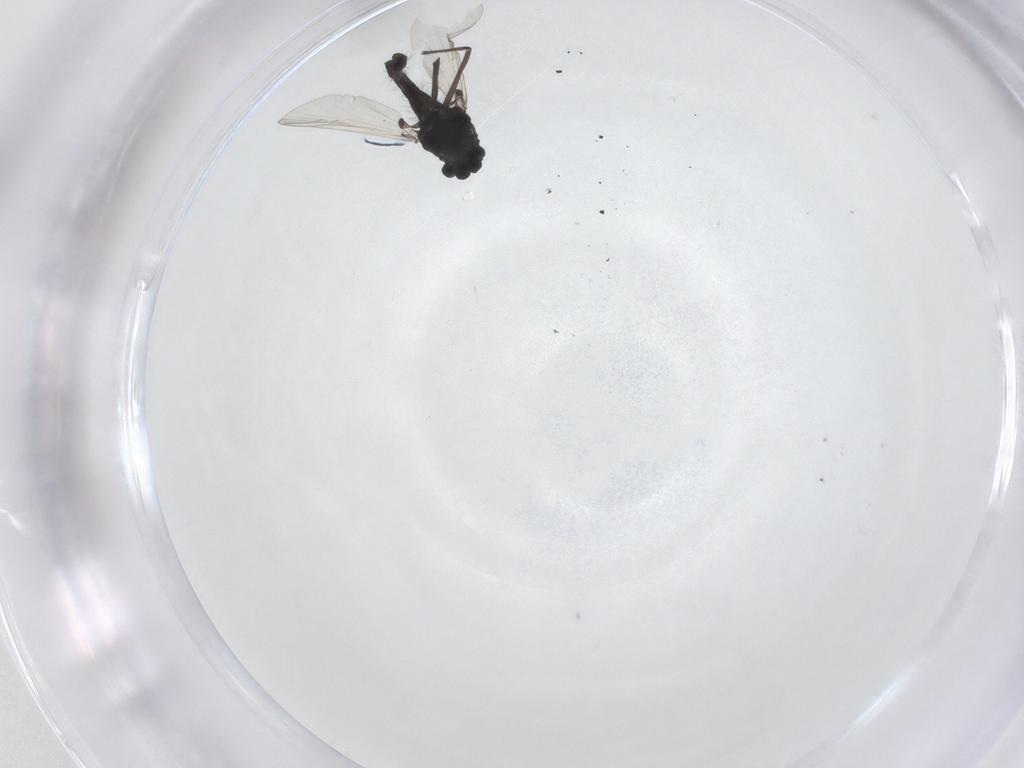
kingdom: Animalia
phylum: Arthropoda
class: Insecta
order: Diptera
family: Chironomidae
